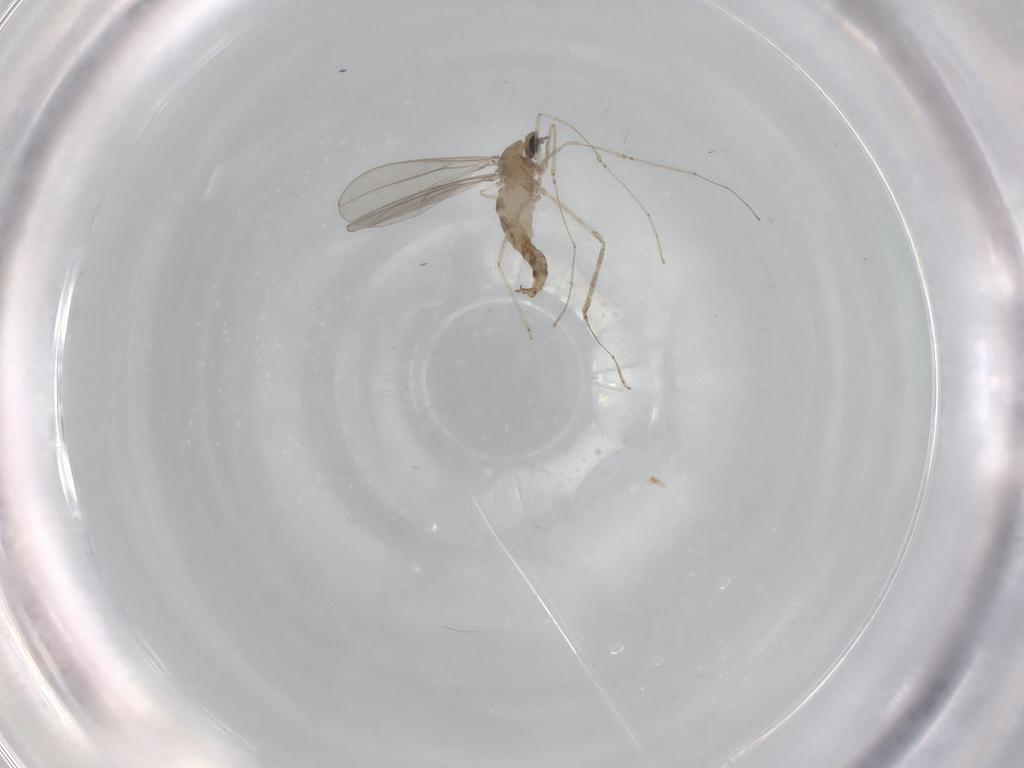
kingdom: Animalia
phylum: Arthropoda
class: Insecta
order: Diptera
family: Cecidomyiidae
